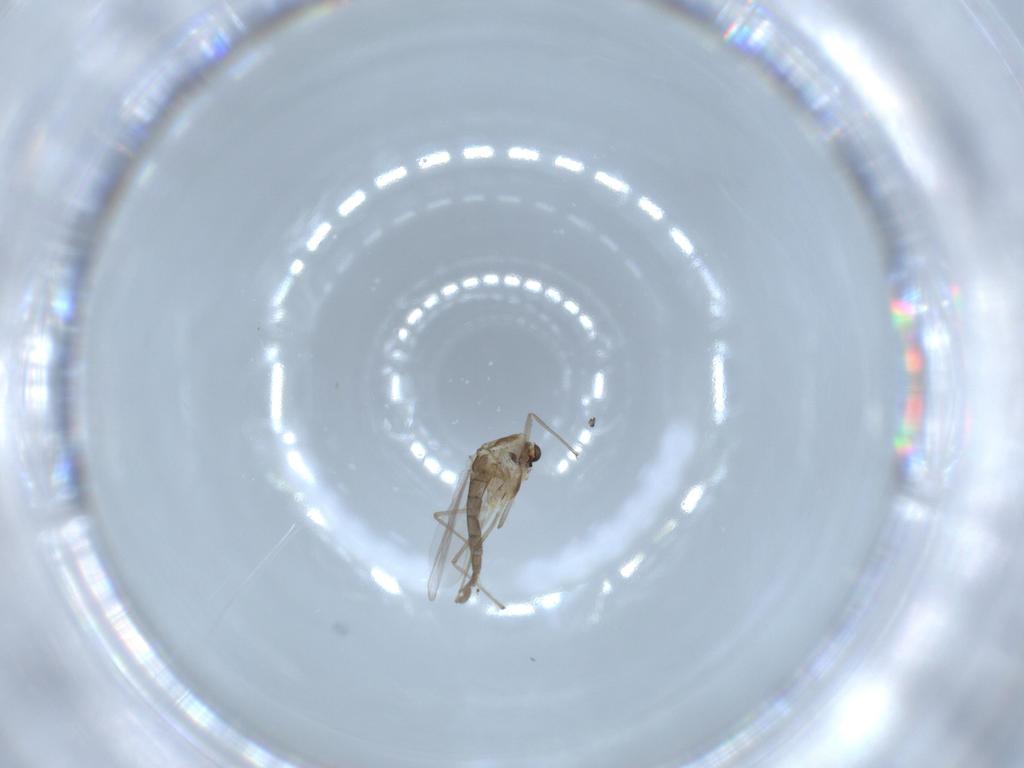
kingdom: Animalia
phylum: Arthropoda
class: Insecta
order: Diptera
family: Chironomidae
